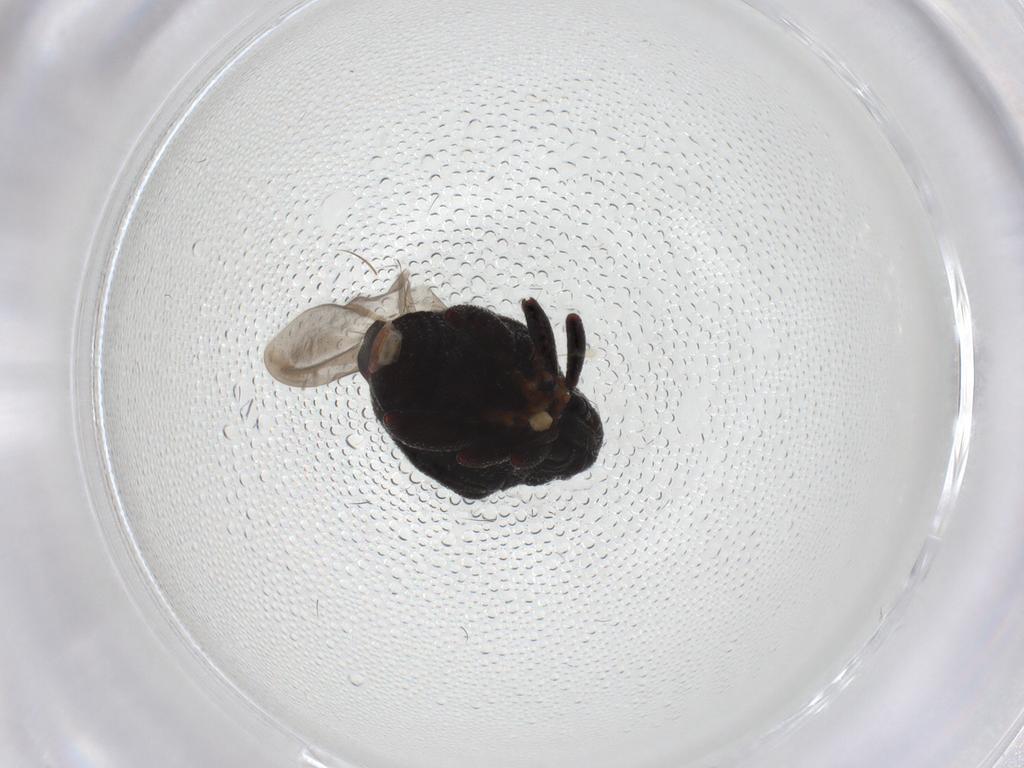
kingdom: Animalia
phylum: Arthropoda
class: Insecta
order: Coleoptera
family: Curculionidae
